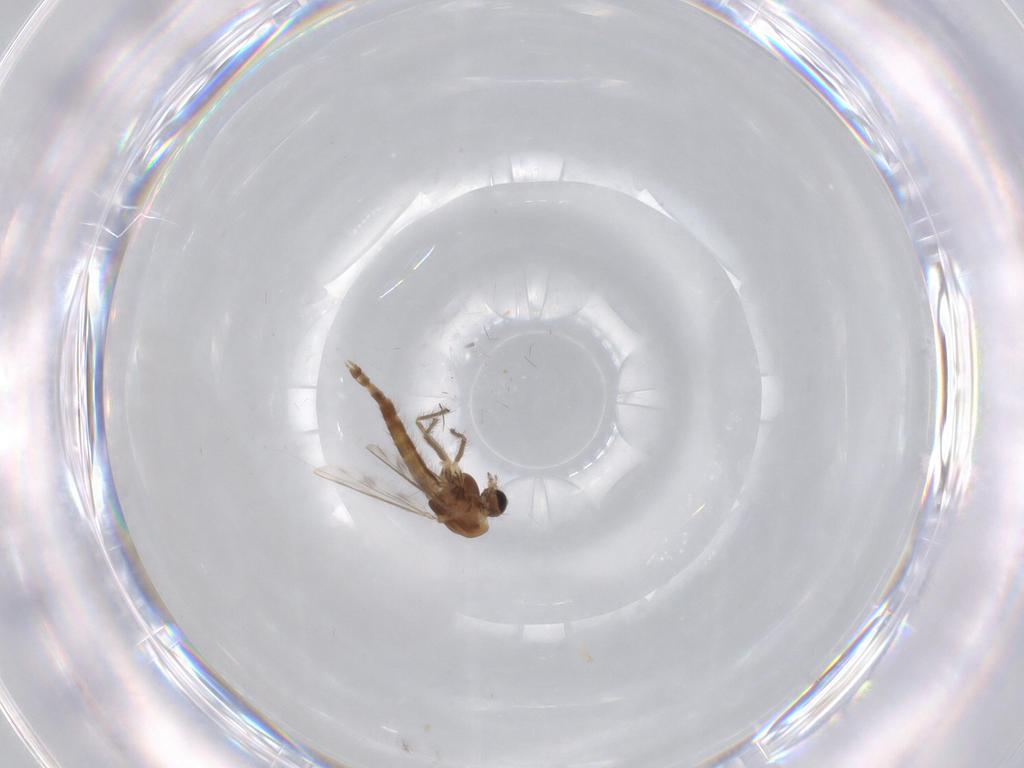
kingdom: Animalia
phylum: Arthropoda
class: Insecta
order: Diptera
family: Chironomidae
